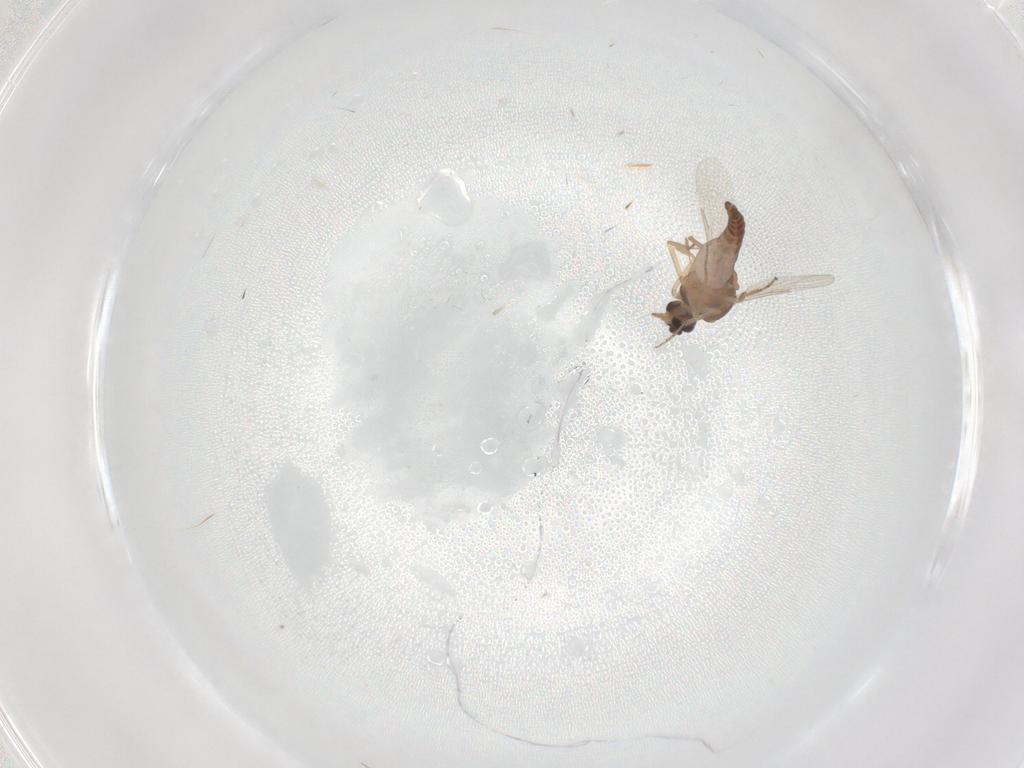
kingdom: Animalia
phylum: Arthropoda
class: Insecta
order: Diptera
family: Ceratopogonidae
